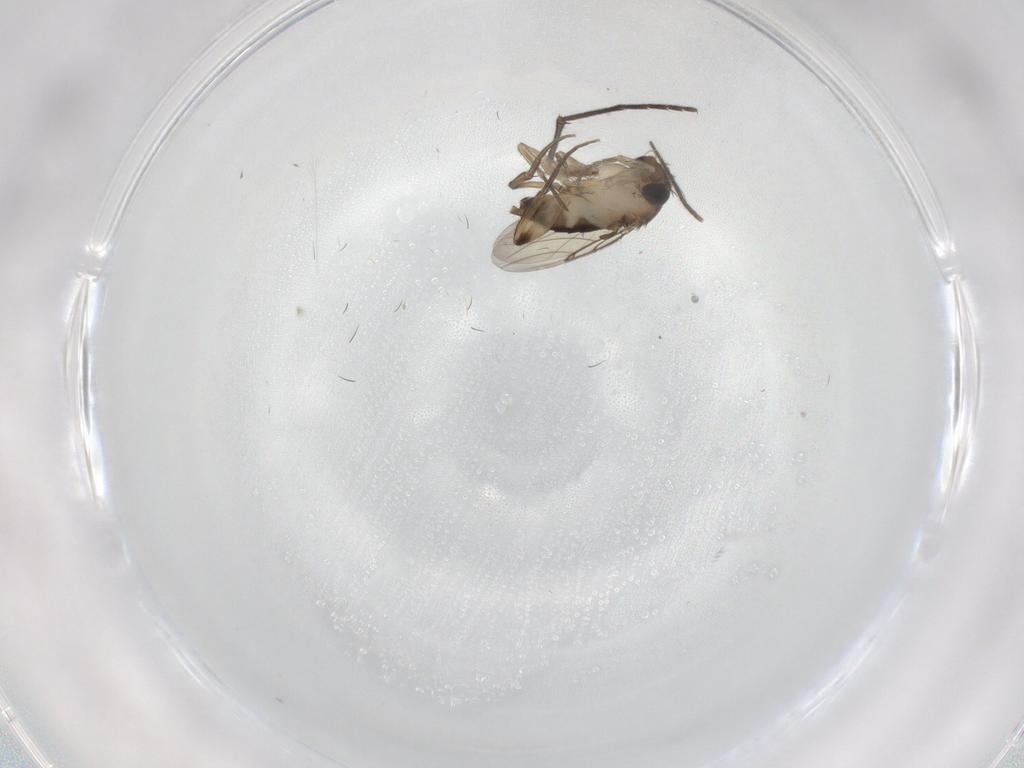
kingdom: Animalia
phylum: Arthropoda
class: Insecta
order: Diptera
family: Sciaridae
